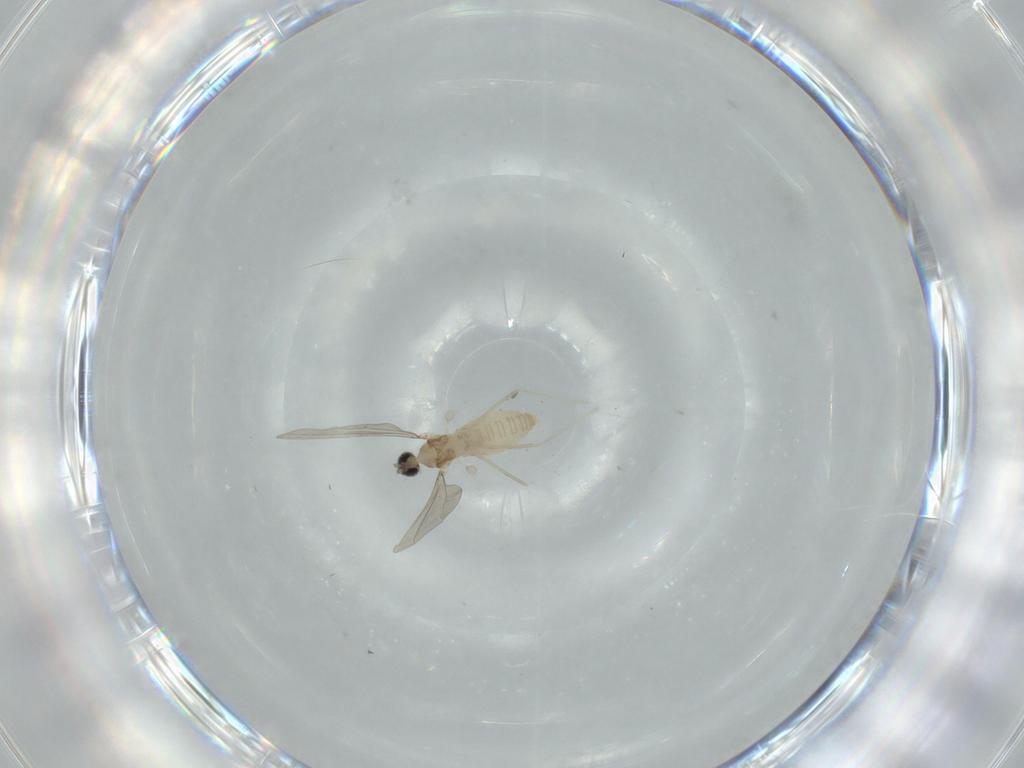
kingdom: Animalia
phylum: Arthropoda
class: Insecta
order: Diptera
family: Cecidomyiidae
